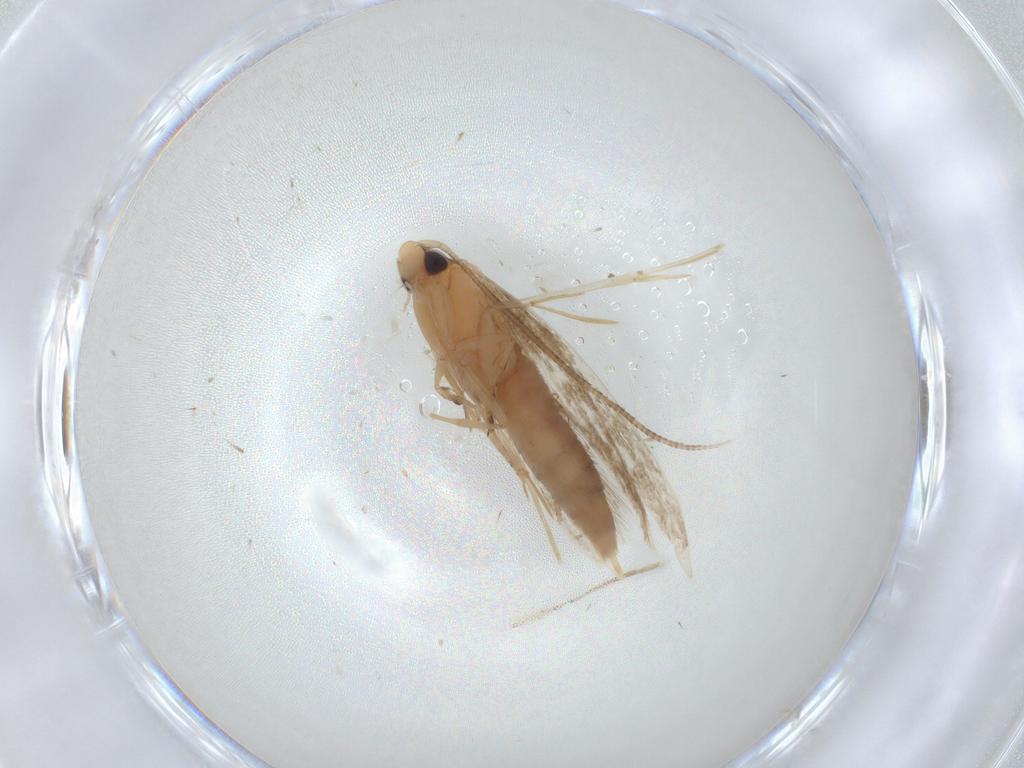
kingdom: Animalia
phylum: Arthropoda
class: Insecta
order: Lepidoptera
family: Tineidae
